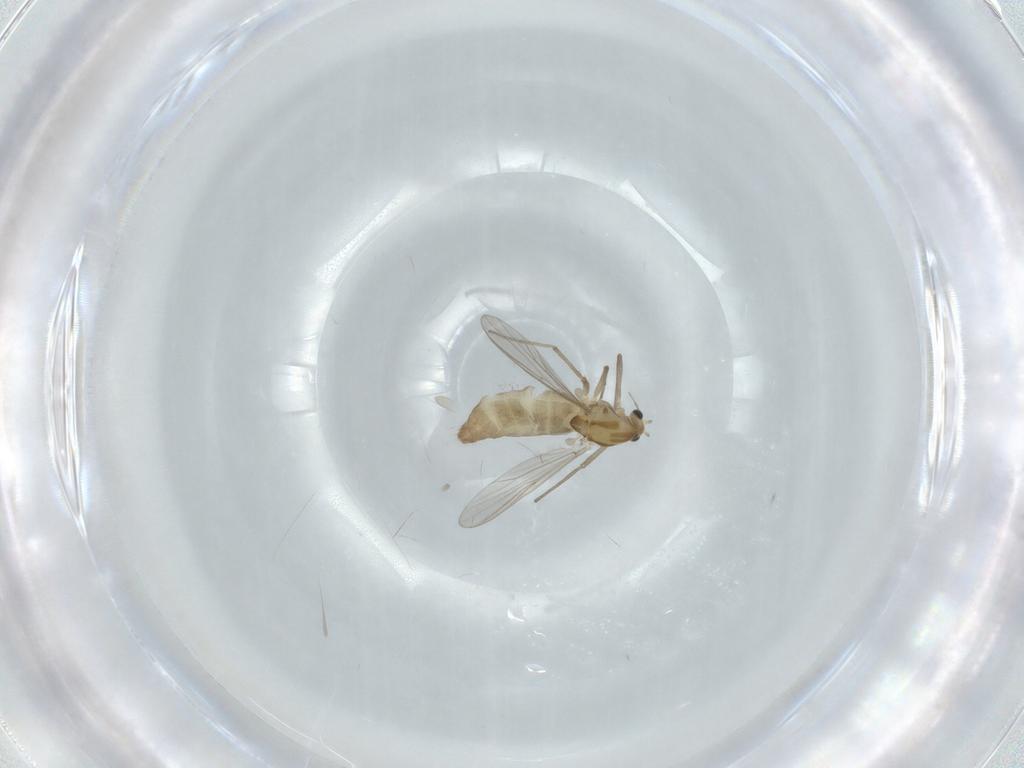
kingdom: Animalia
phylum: Arthropoda
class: Insecta
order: Diptera
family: Chironomidae
